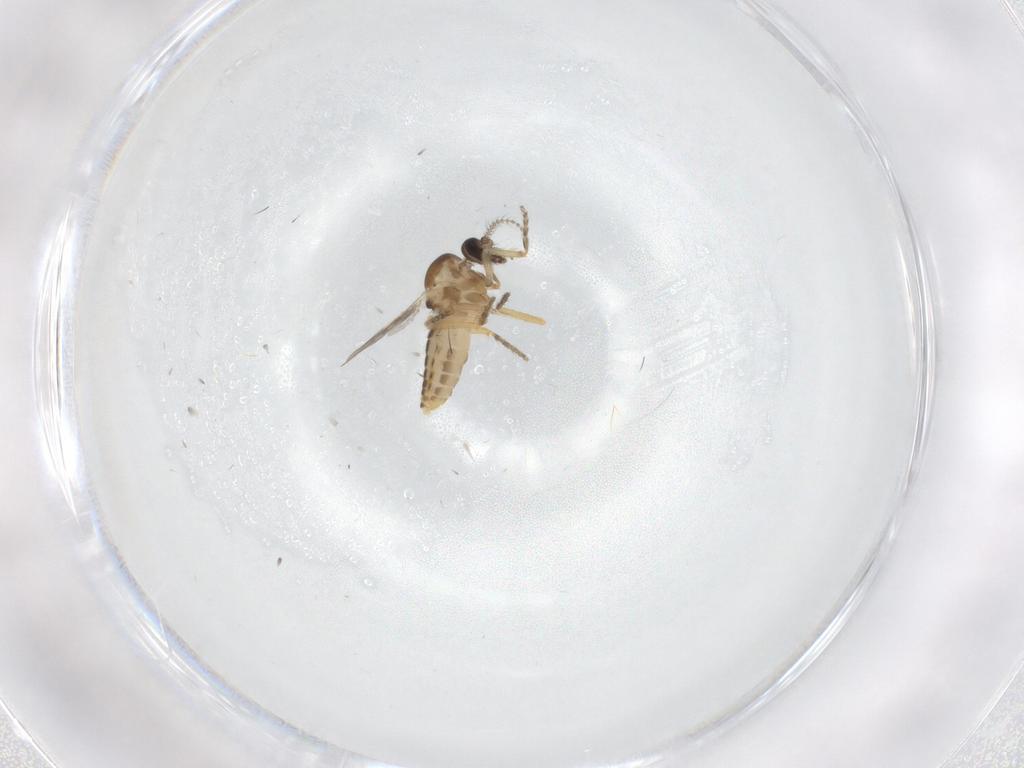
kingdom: Animalia
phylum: Arthropoda
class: Insecta
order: Diptera
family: Ceratopogonidae
